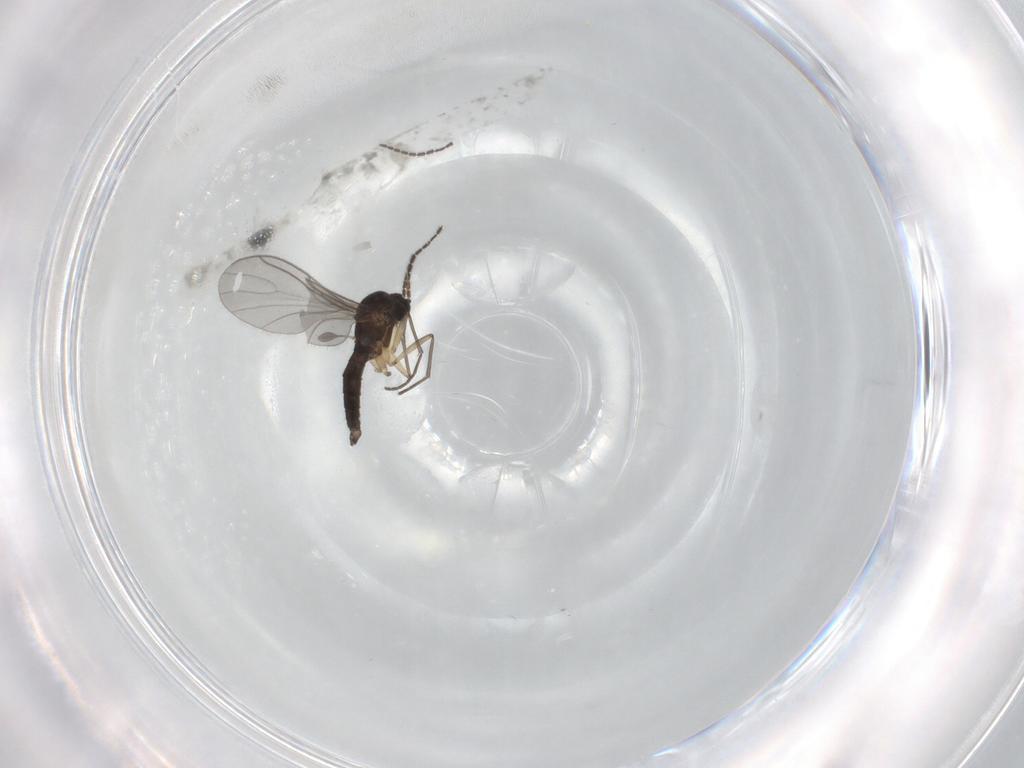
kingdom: Animalia
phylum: Arthropoda
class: Insecta
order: Diptera
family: Sciaridae
